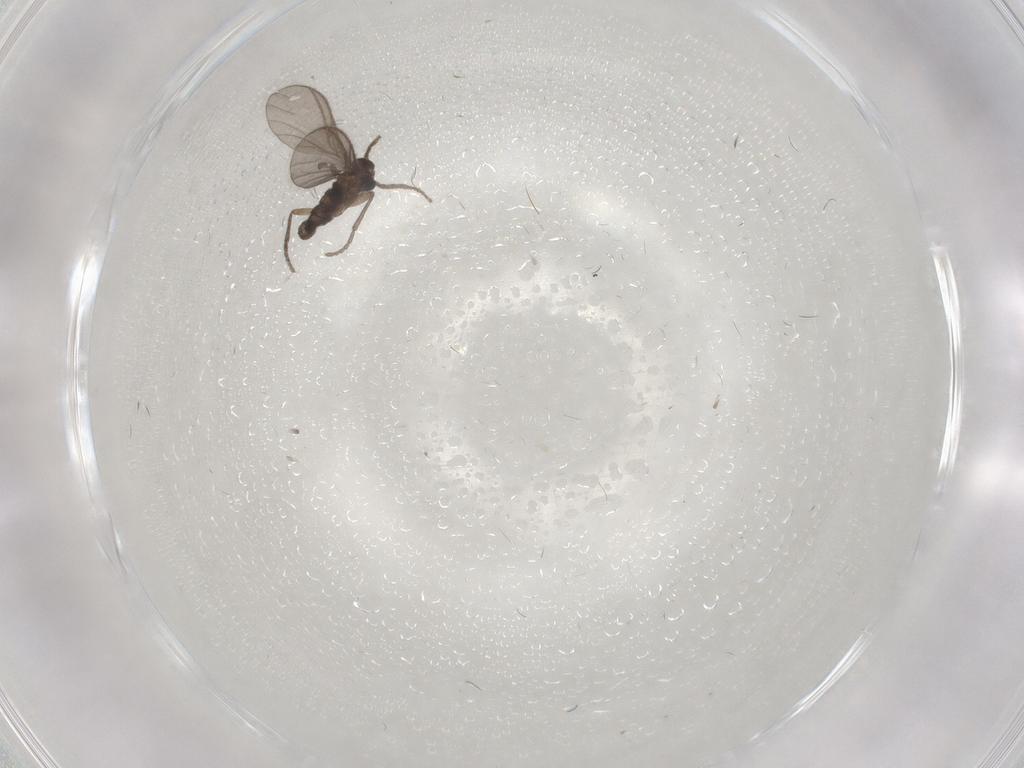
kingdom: Animalia
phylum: Arthropoda
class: Insecta
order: Diptera
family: Sciaridae
